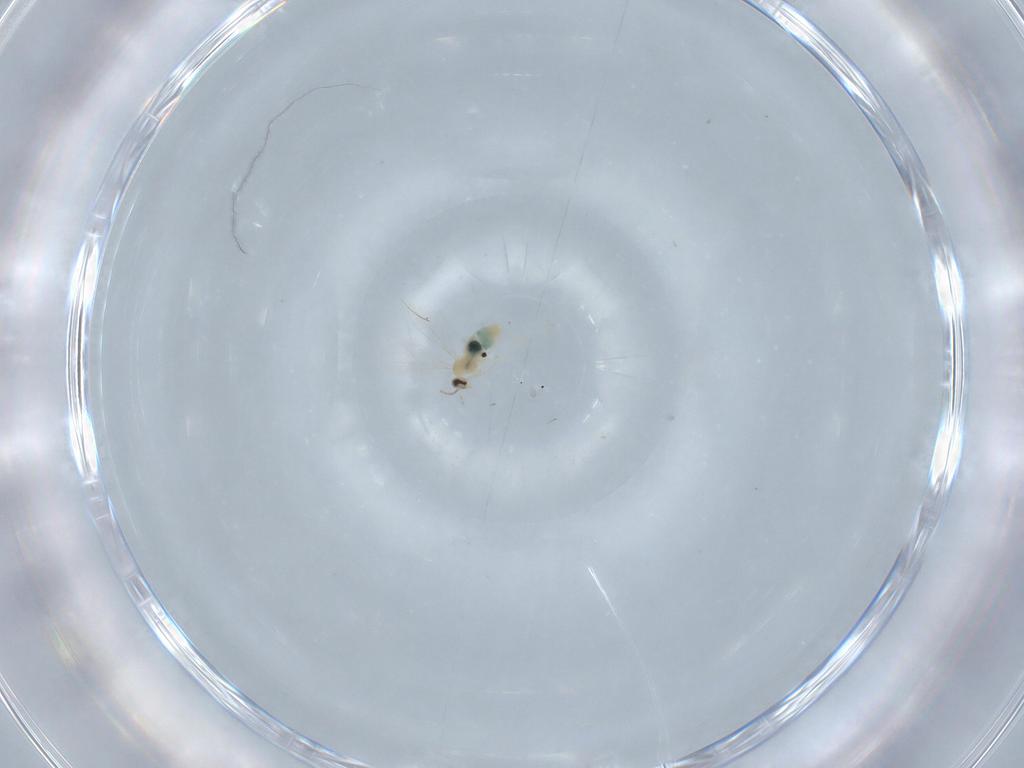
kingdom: Animalia
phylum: Arthropoda
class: Insecta
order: Diptera
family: Cecidomyiidae
